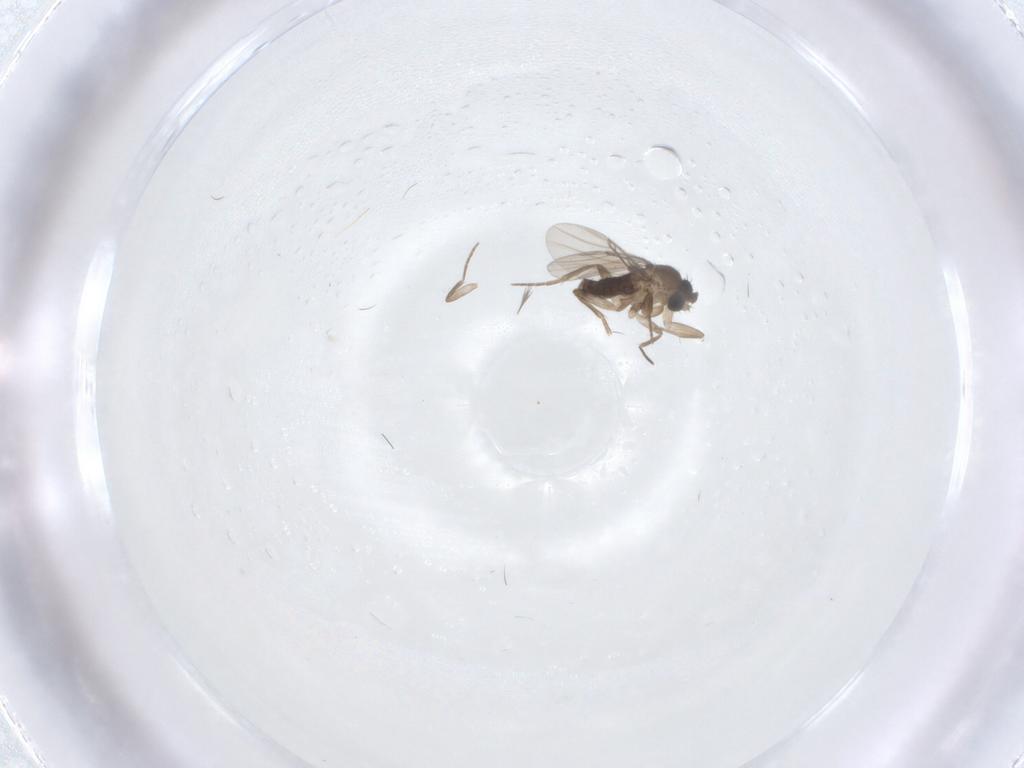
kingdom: Animalia
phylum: Arthropoda
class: Insecta
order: Diptera
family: Phoridae
